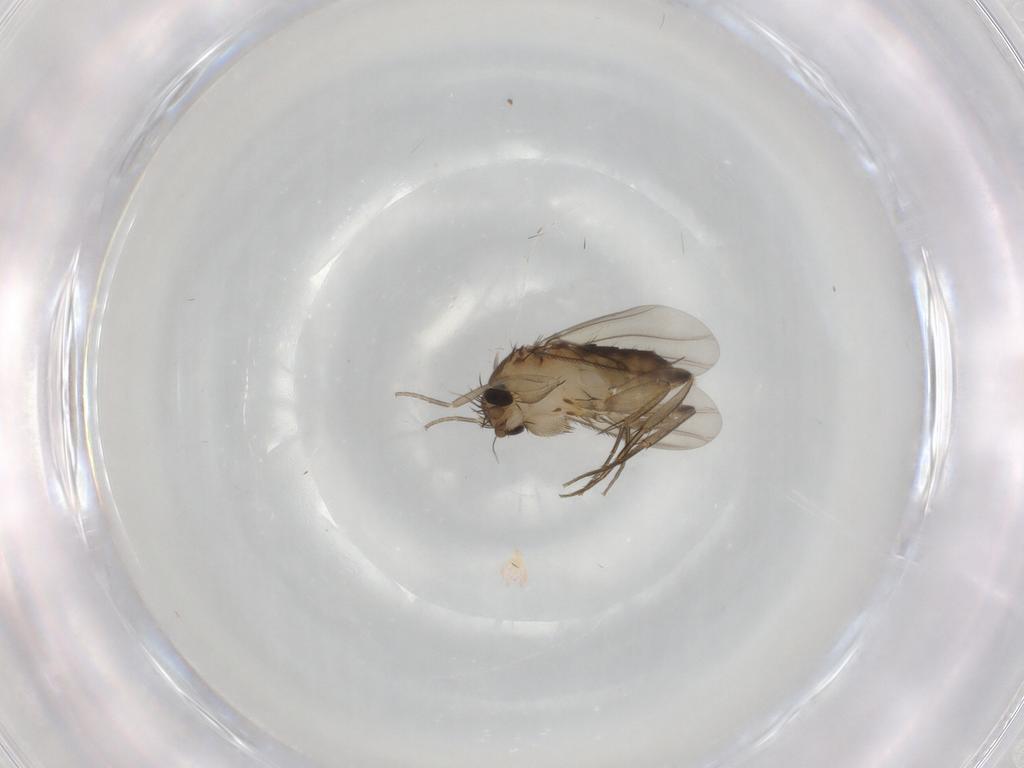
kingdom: Animalia
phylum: Arthropoda
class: Insecta
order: Diptera
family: Phoridae
